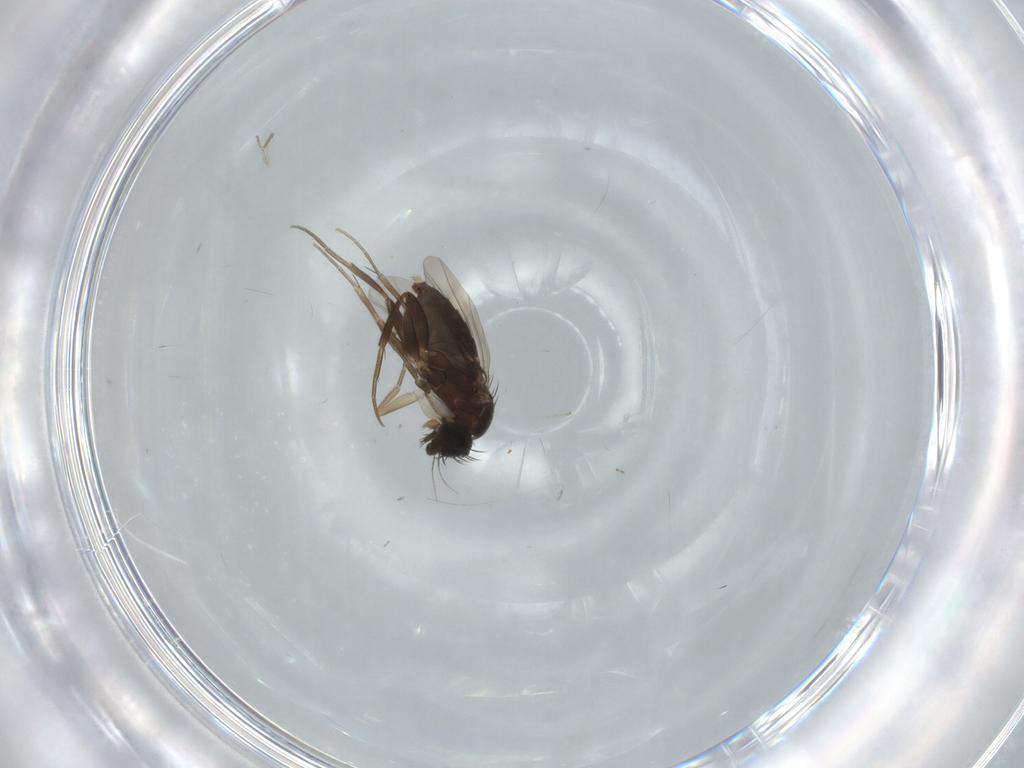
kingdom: Animalia
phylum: Arthropoda
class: Insecta
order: Diptera
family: Phoridae
